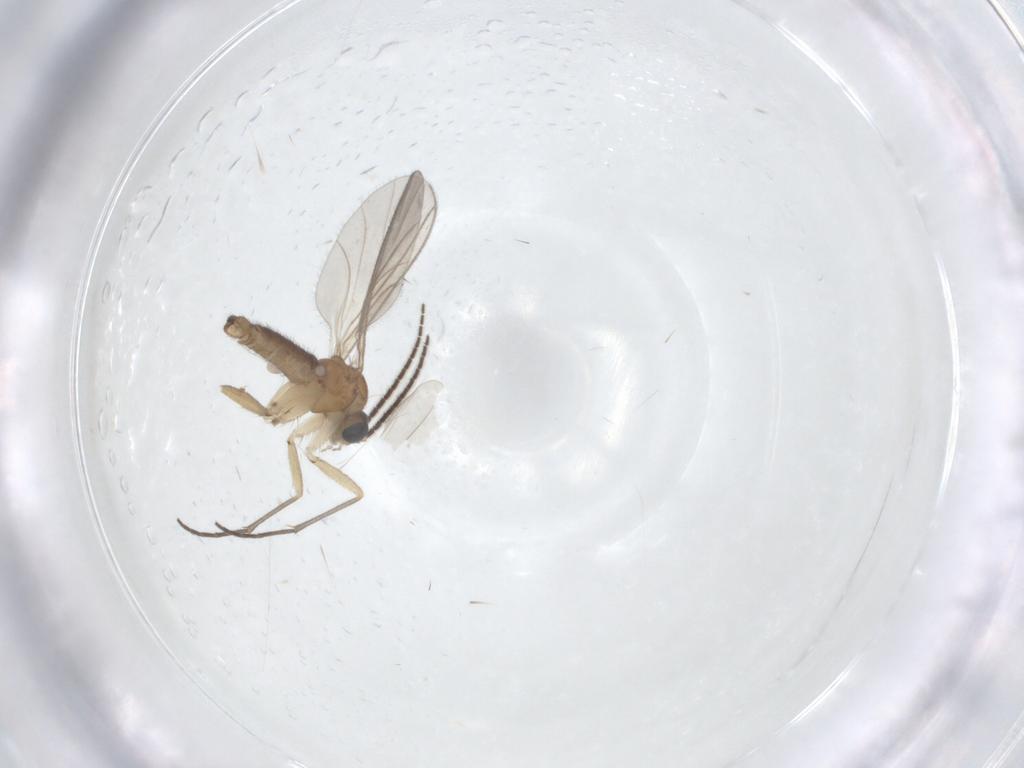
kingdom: Animalia
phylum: Arthropoda
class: Insecta
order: Diptera
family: Sciaridae
